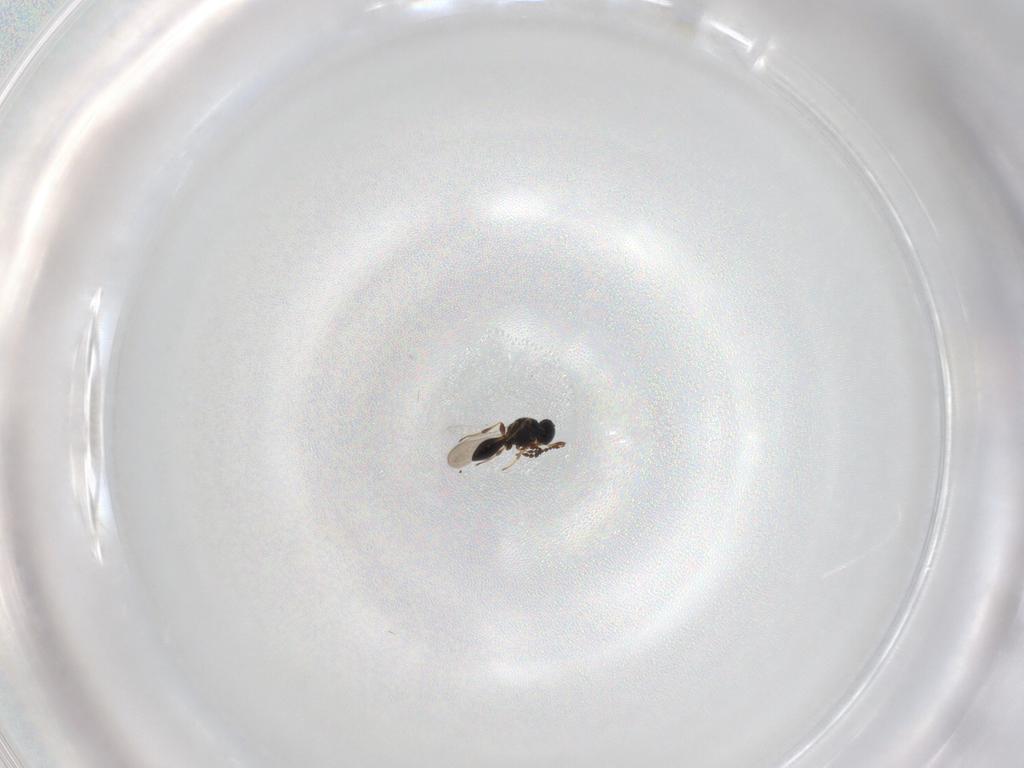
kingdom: Animalia
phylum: Arthropoda
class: Insecta
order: Hymenoptera
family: Platygastridae
